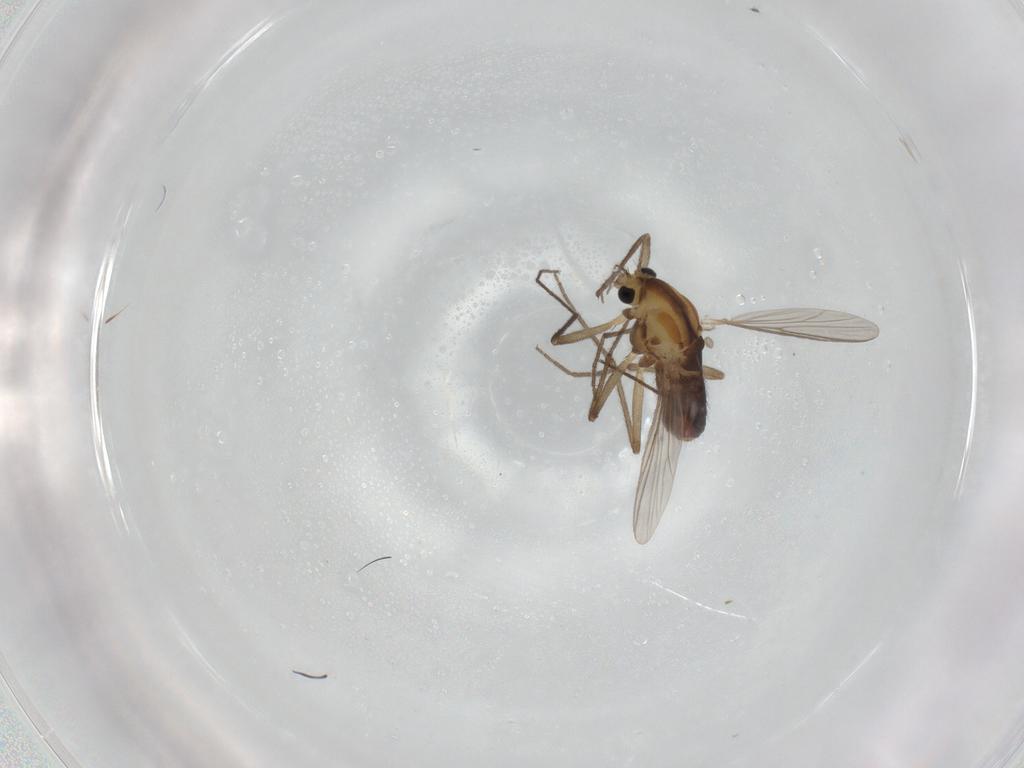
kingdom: Animalia
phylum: Arthropoda
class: Insecta
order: Diptera
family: Chironomidae
